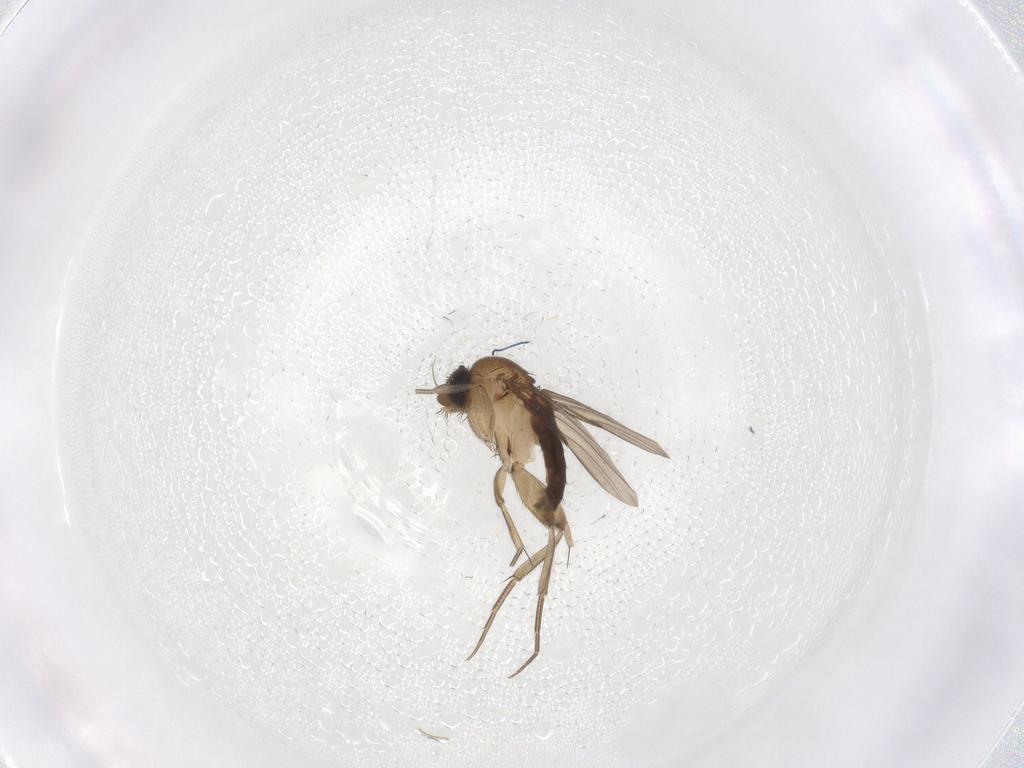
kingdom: Animalia
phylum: Arthropoda
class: Insecta
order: Diptera
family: Phoridae
